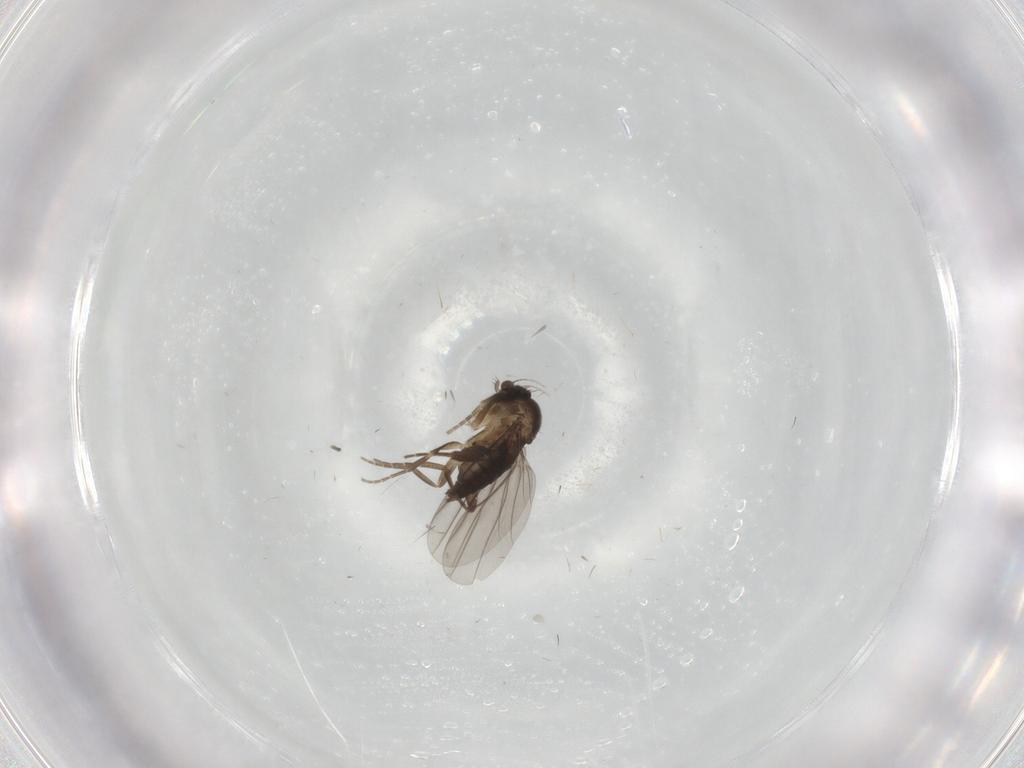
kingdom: Animalia
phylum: Arthropoda
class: Insecta
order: Diptera
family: Phoridae
